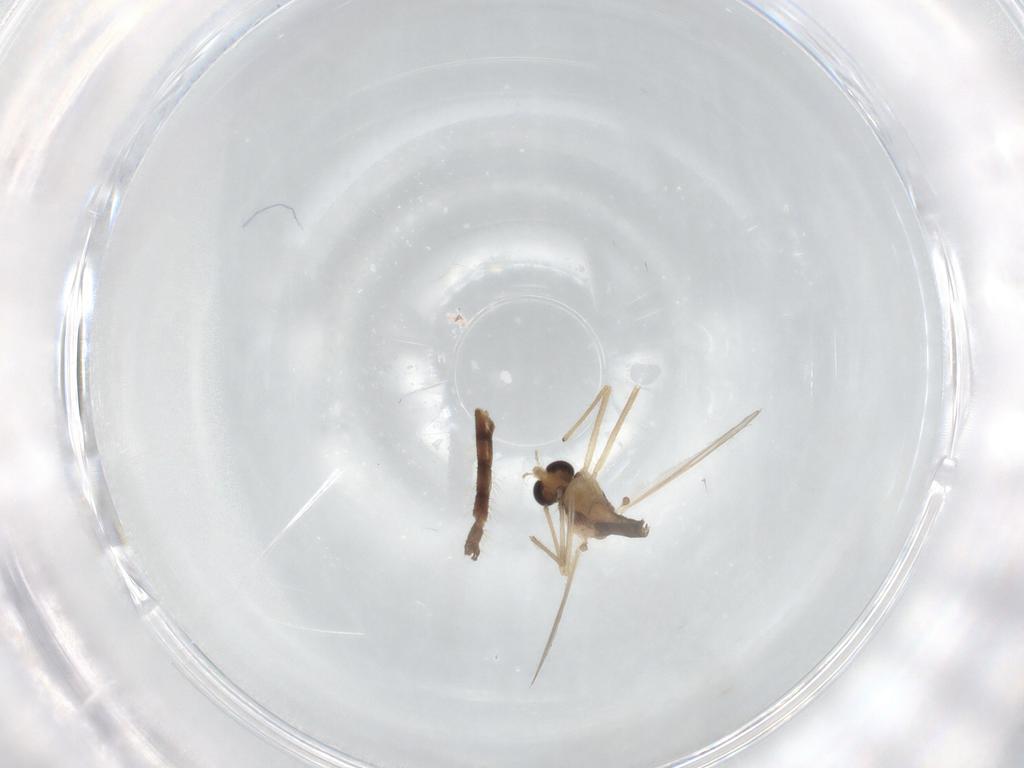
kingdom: Animalia
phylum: Arthropoda
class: Insecta
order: Diptera
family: Chironomidae
